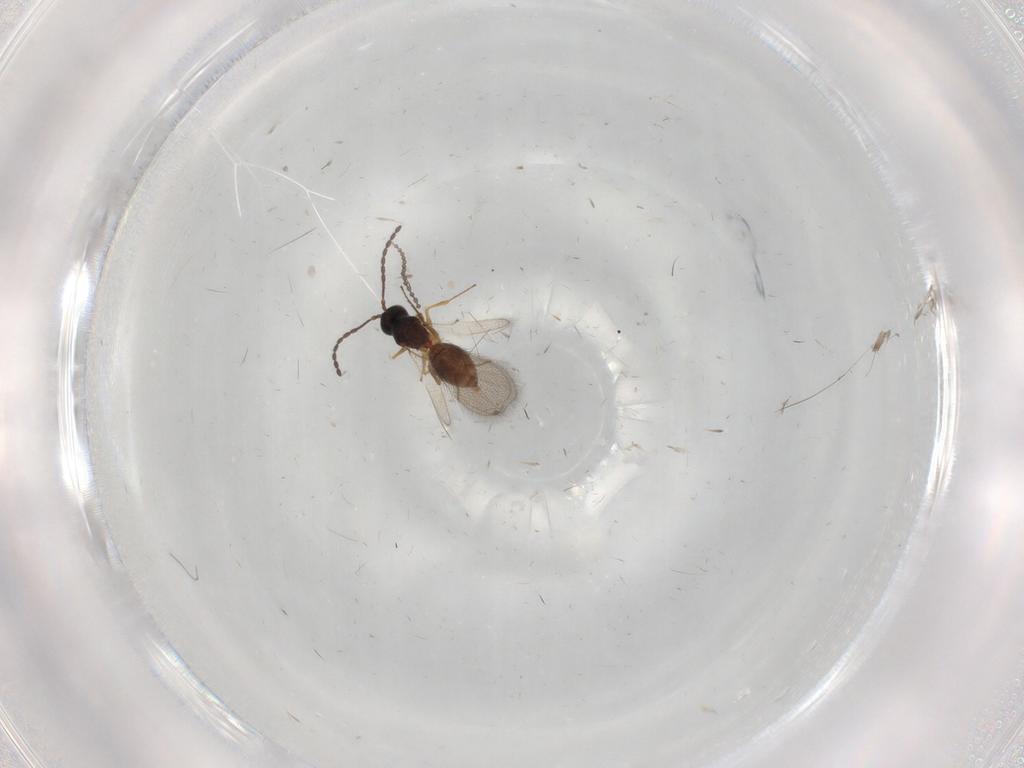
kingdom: Animalia
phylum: Arthropoda
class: Insecta
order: Hymenoptera
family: Figitidae
